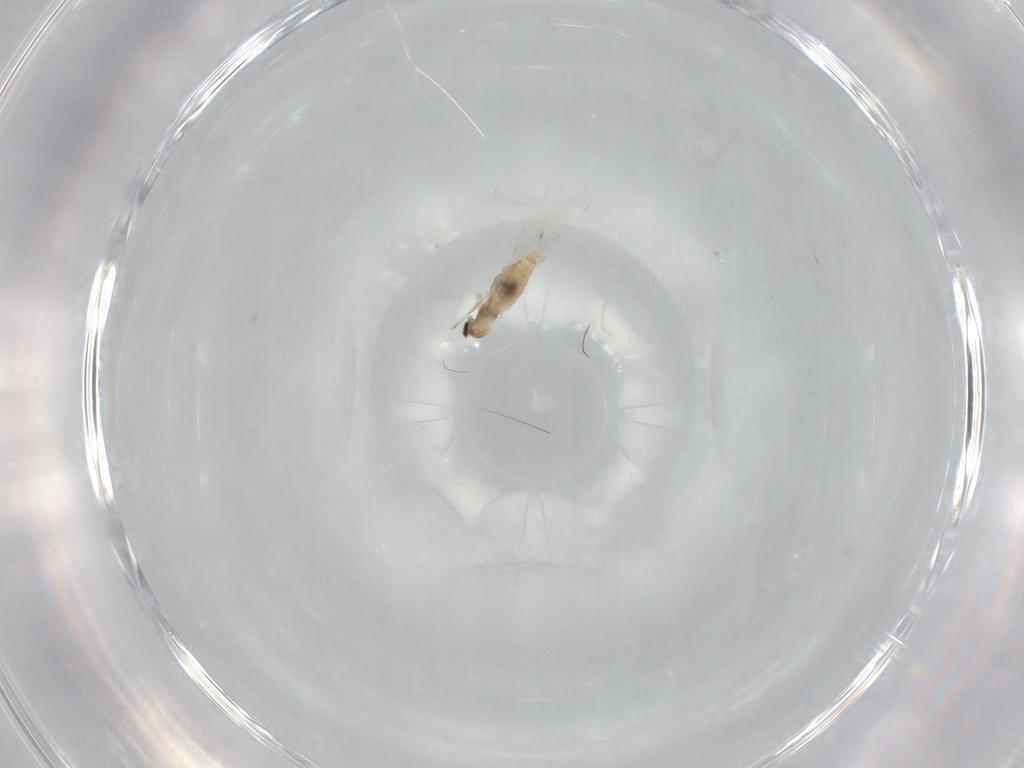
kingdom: Animalia
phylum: Arthropoda
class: Insecta
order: Diptera
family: Cecidomyiidae
